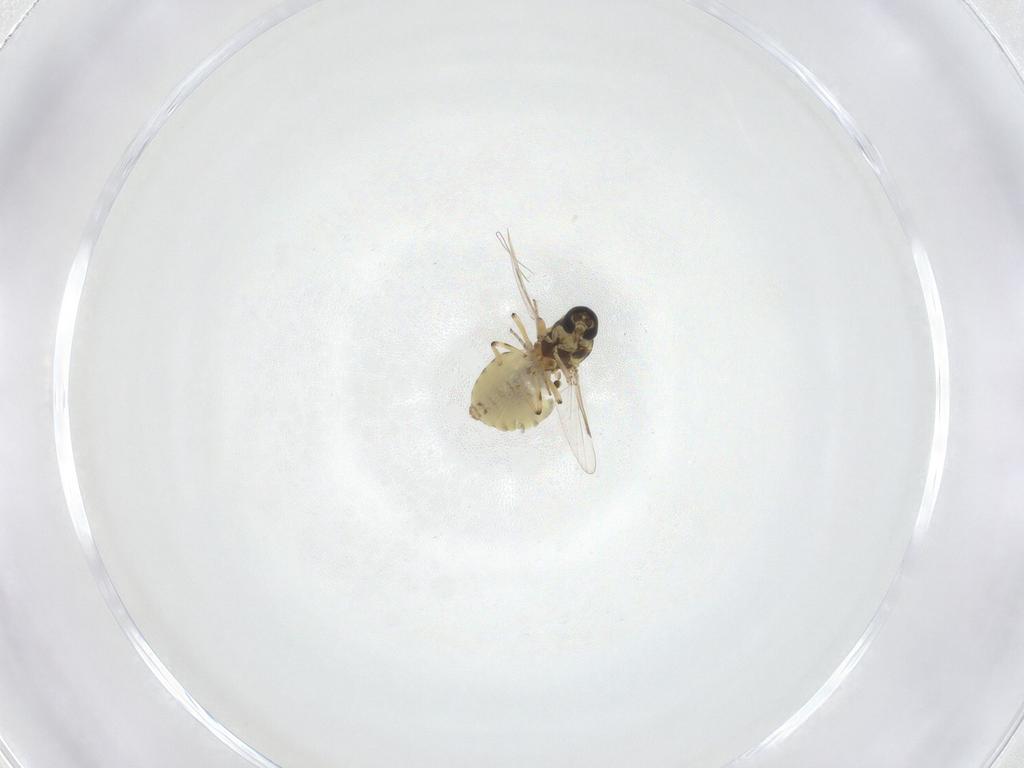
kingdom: Animalia
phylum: Arthropoda
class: Insecta
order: Diptera
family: Ceratopogonidae
